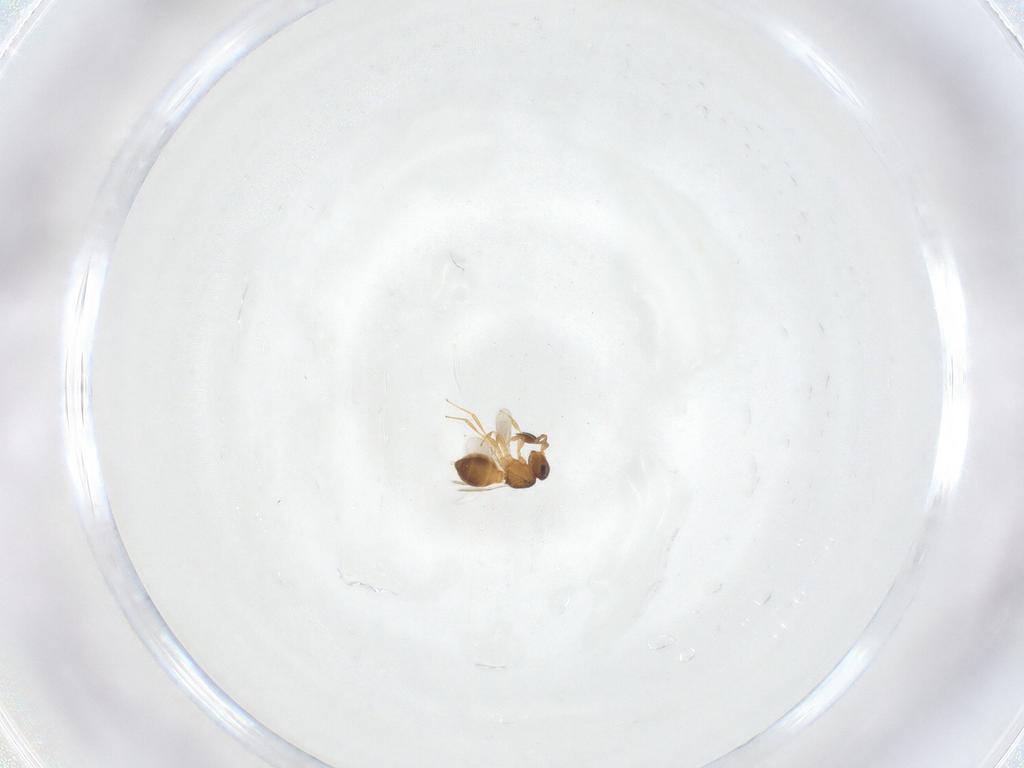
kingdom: Animalia
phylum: Arthropoda
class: Insecta
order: Hymenoptera
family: Scelionidae
